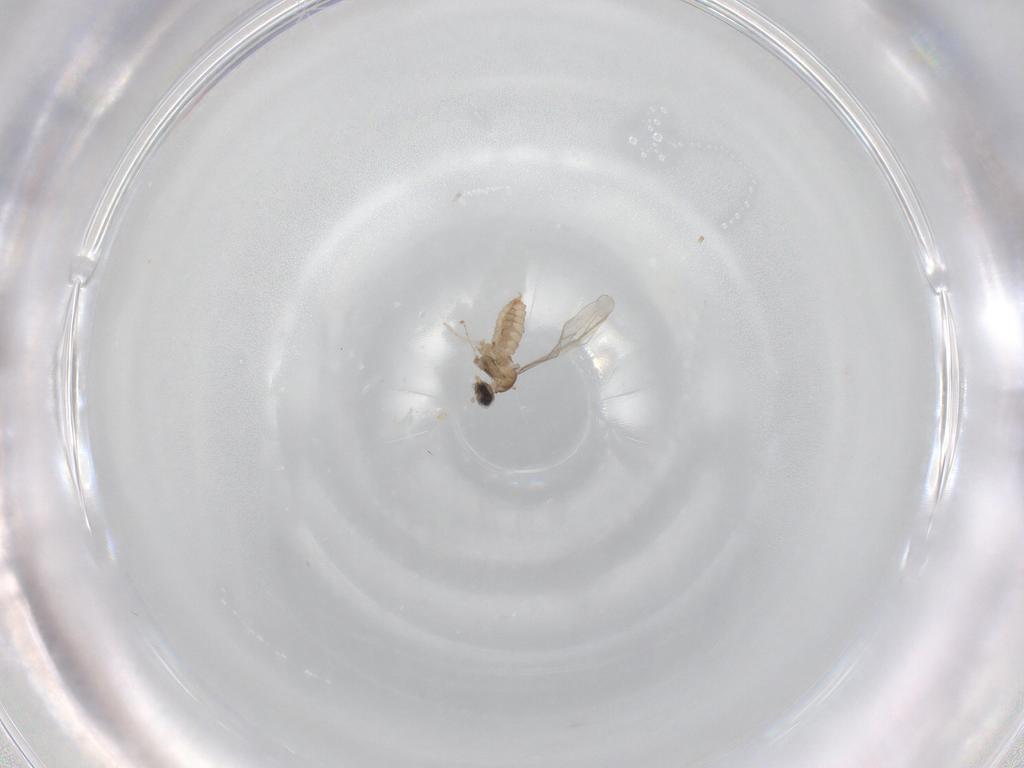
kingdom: Animalia
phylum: Arthropoda
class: Insecta
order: Diptera
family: Cecidomyiidae
